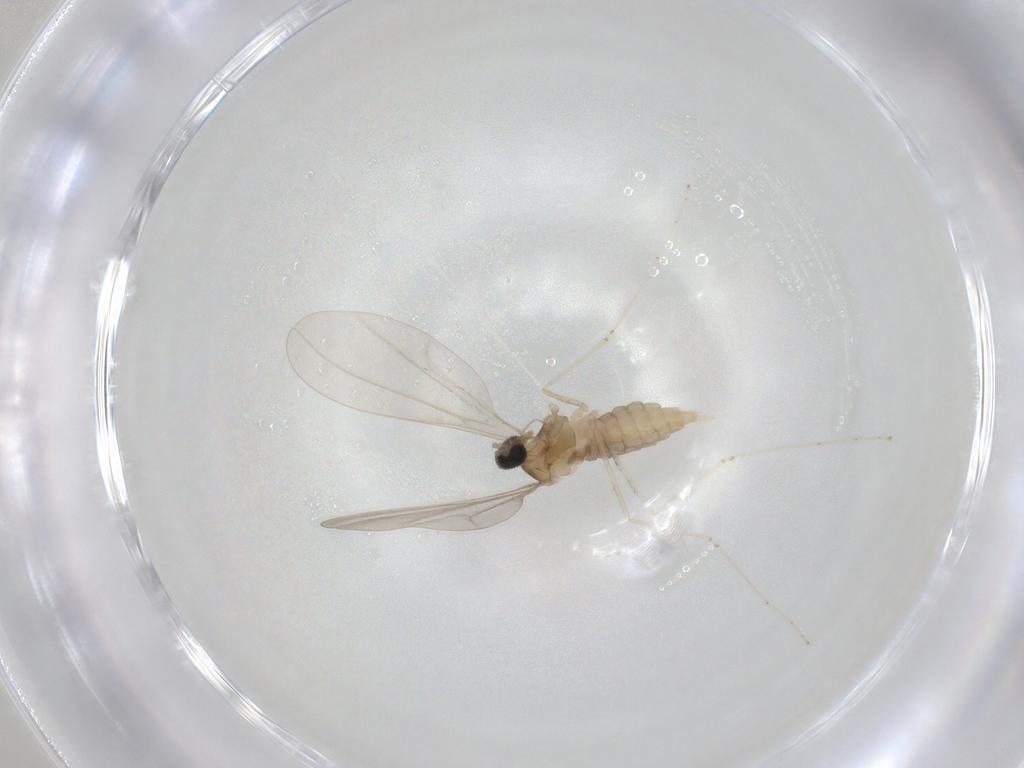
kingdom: Animalia
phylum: Arthropoda
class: Insecta
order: Diptera
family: Cecidomyiidae
